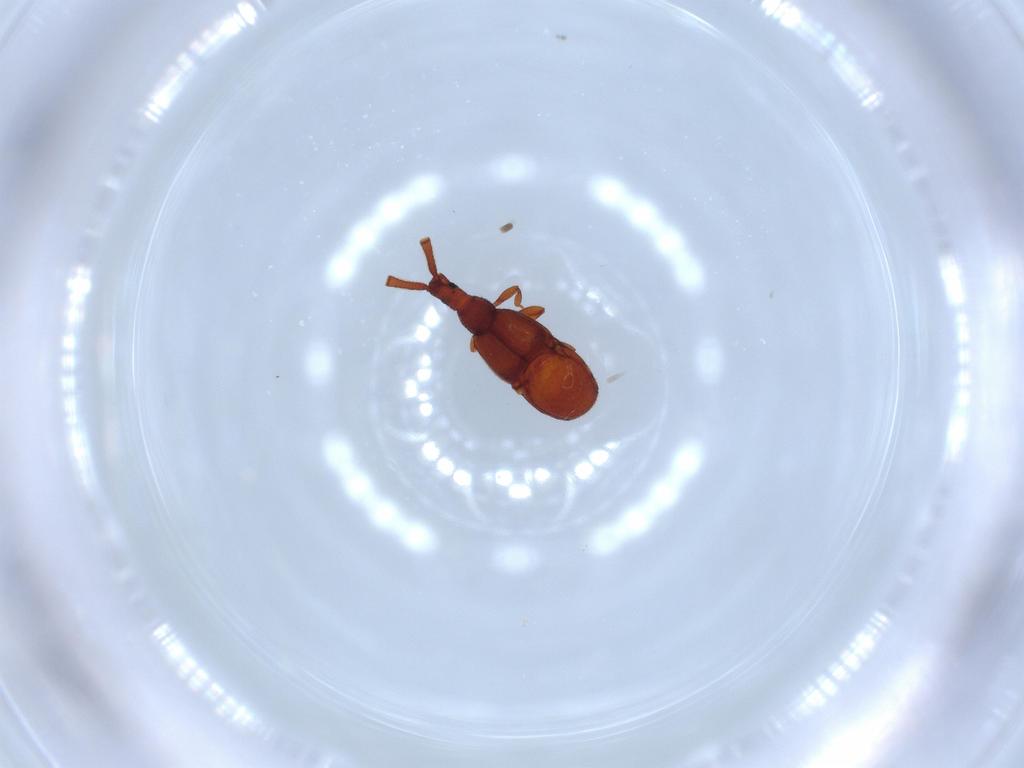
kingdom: Animalia
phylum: Arthropoda
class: Insecta
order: Coleoptera
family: Staphylinidae
